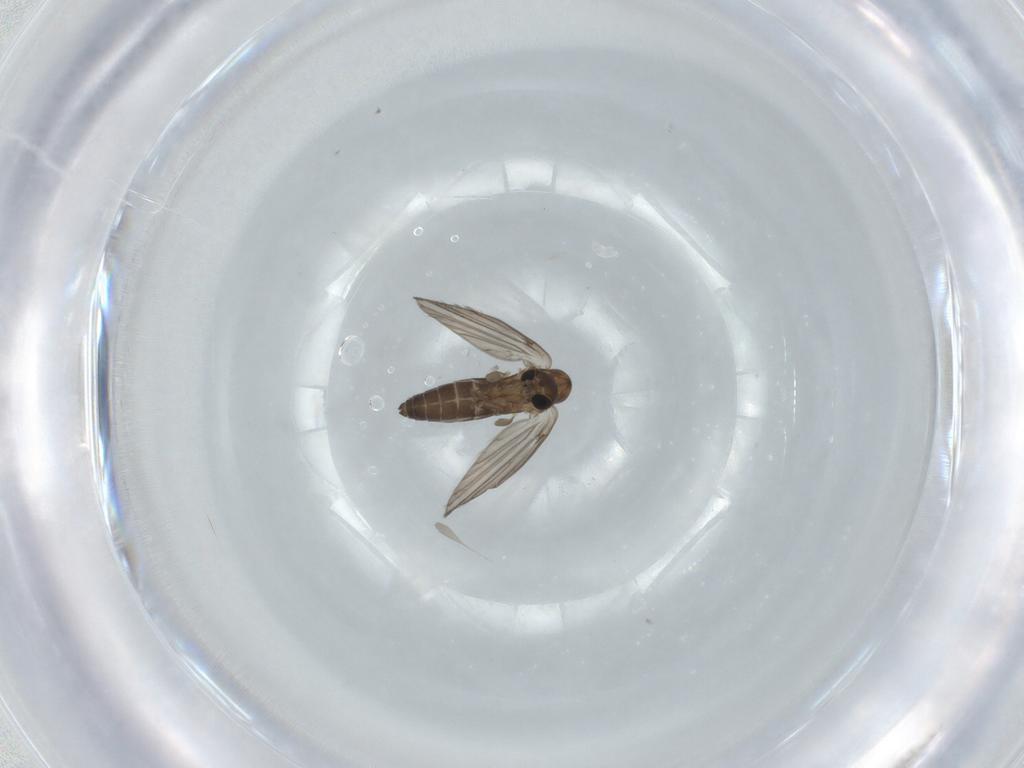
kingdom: Animalia
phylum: Arthropoda
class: Insecta
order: Diptera
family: Psychodidae
